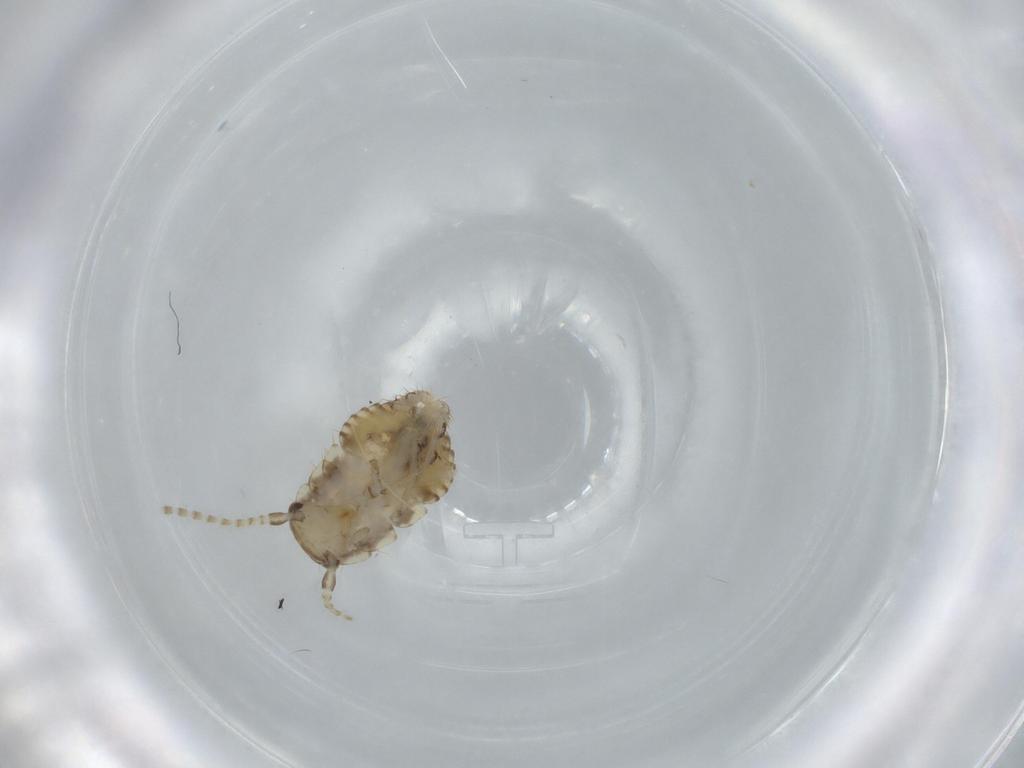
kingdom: Animalia
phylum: Arthropoda
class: Insecta
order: Blattodea
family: Ectobiidae
